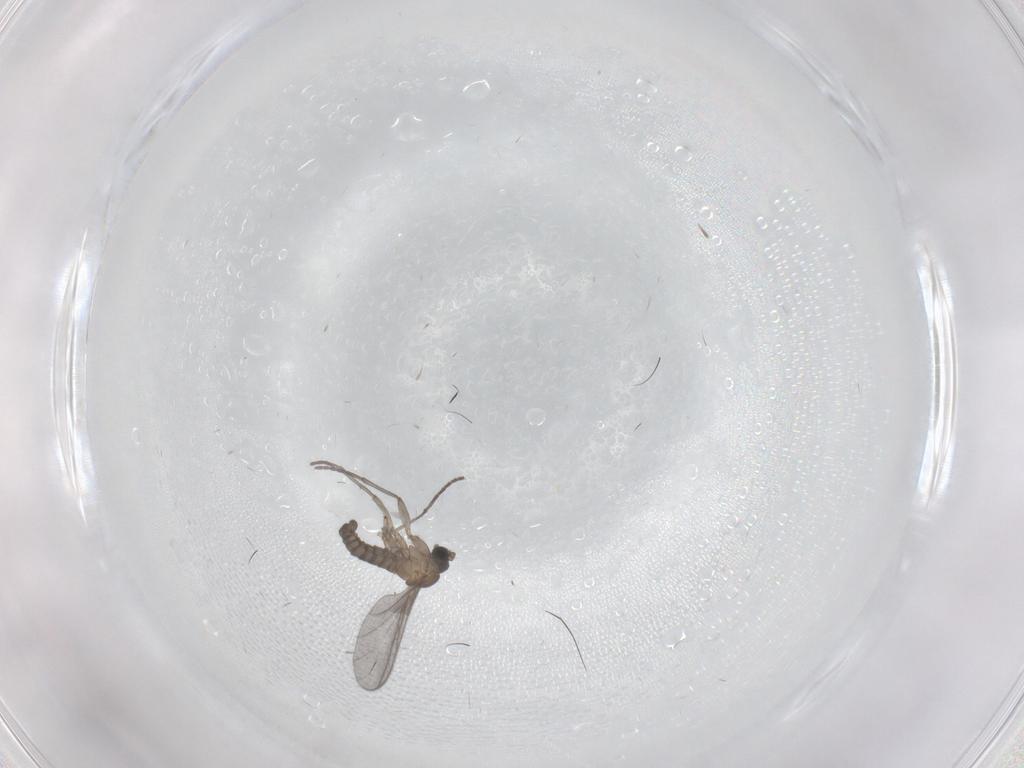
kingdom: Animalia
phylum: Arthropoda
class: Insecta
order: Diptera
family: Sciaridae
